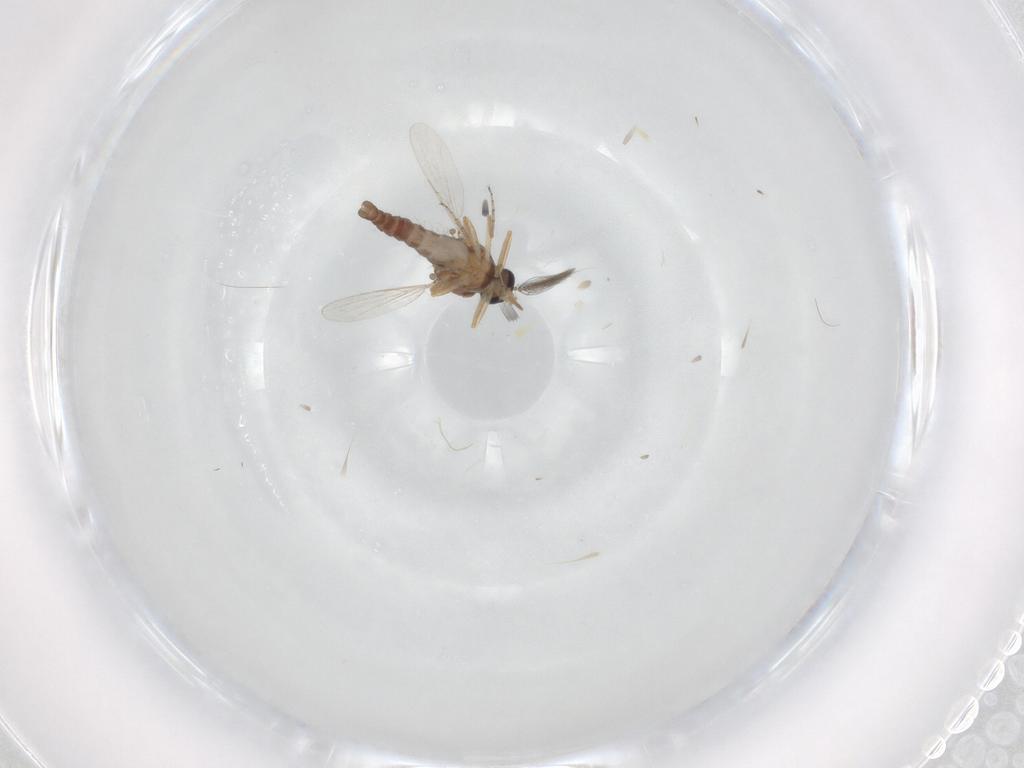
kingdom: Animalia
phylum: Arthropoda
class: Insecta
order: Diptera
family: Ceratopogonidae
